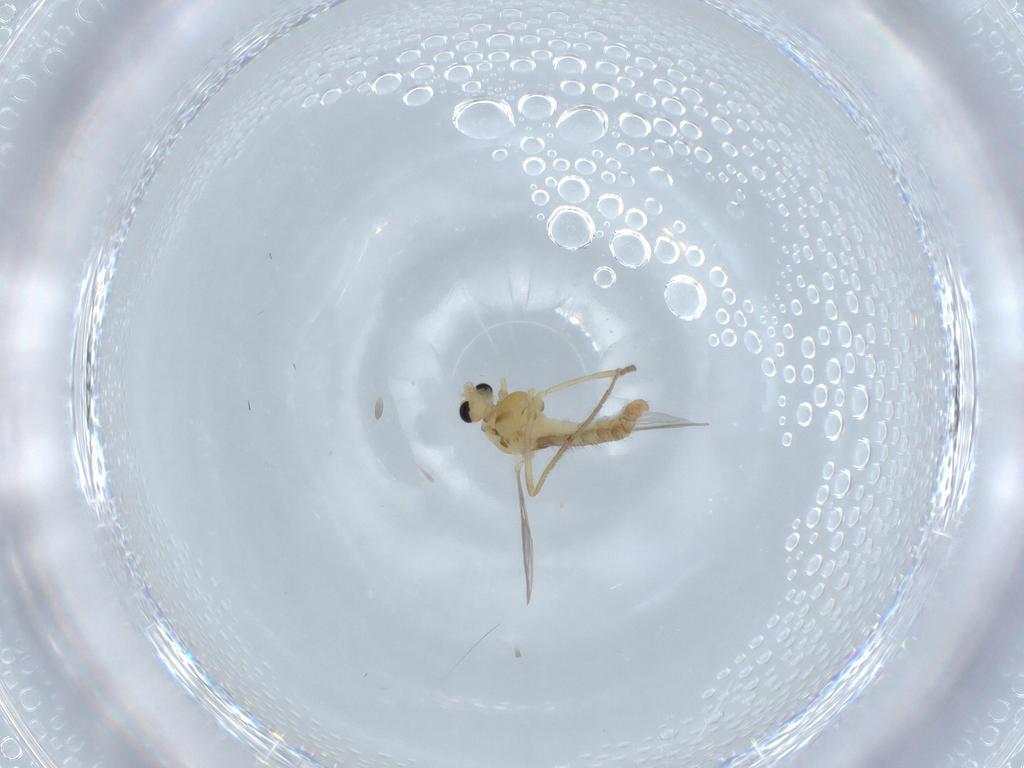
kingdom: Animalia
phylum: Arthropoda
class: Insecta
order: Diptera
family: Chironomidae
